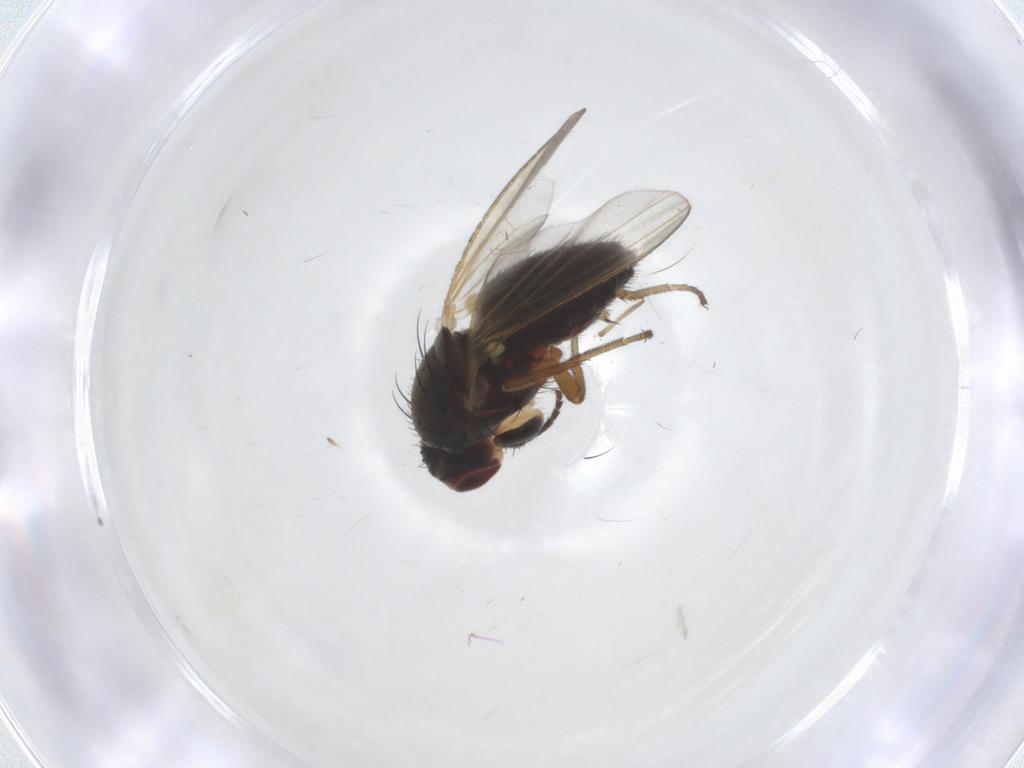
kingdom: Animalia
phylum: Arthropoda
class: Insecta
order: Diptera
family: Heleomyzidae
